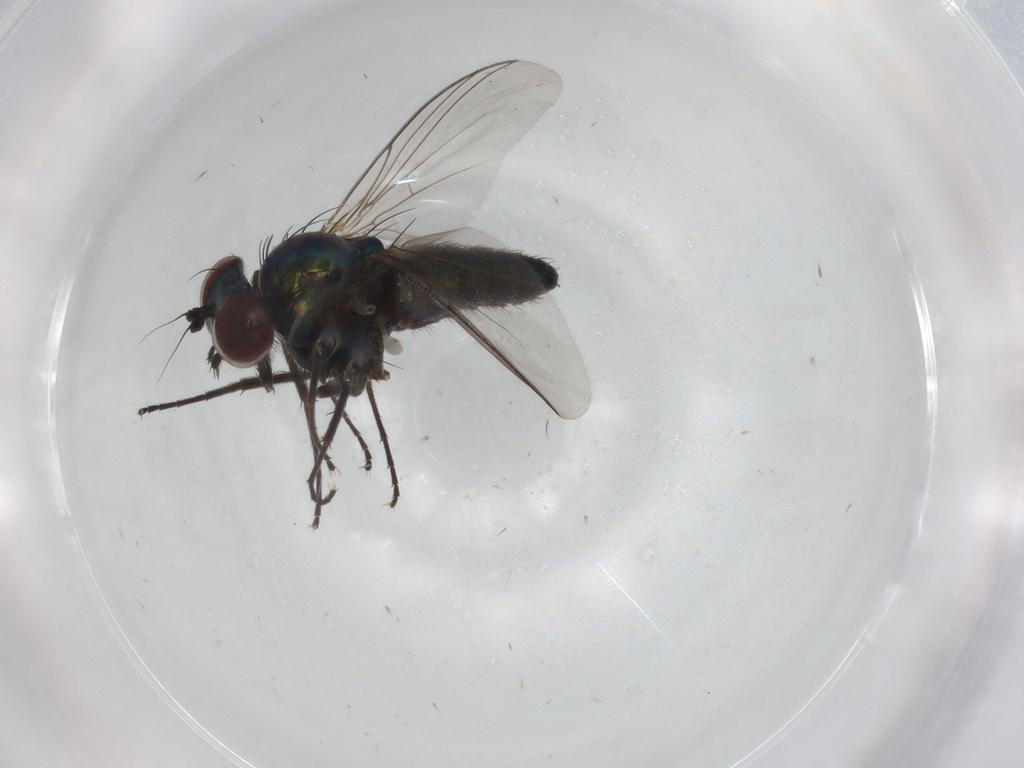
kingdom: Animalia
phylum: Arthropoda
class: Insecta
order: Diptera
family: Dolichopodidae
